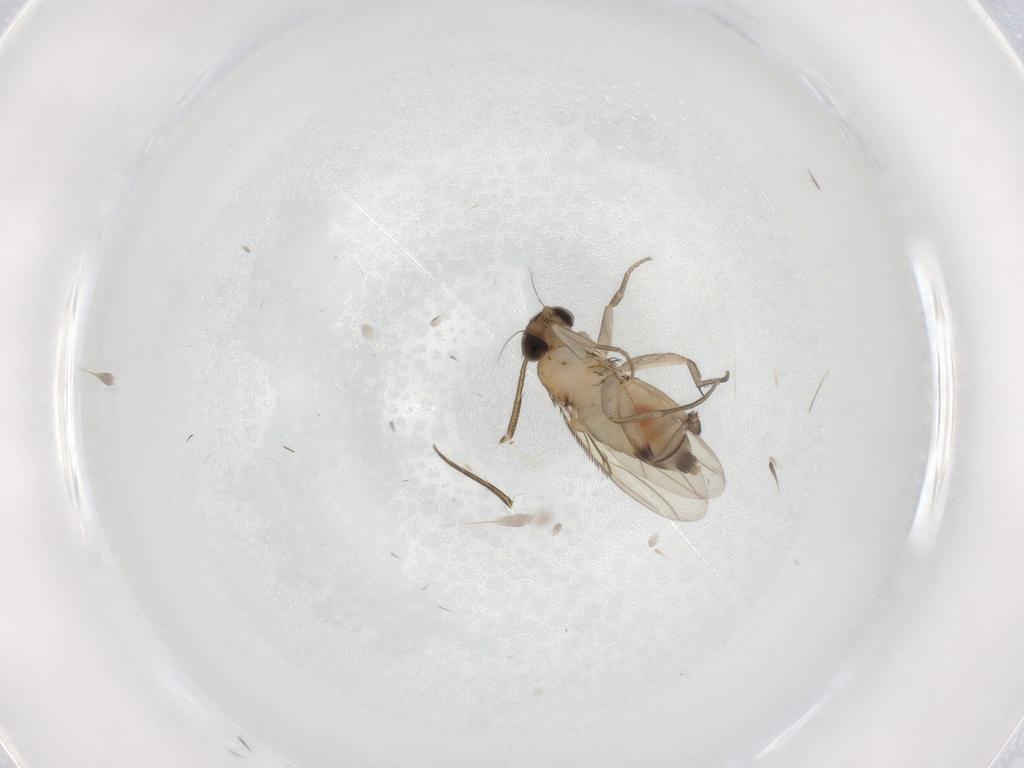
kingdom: Animalia
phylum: Arthropoda
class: Insecta
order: Diptera
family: Phoridae
